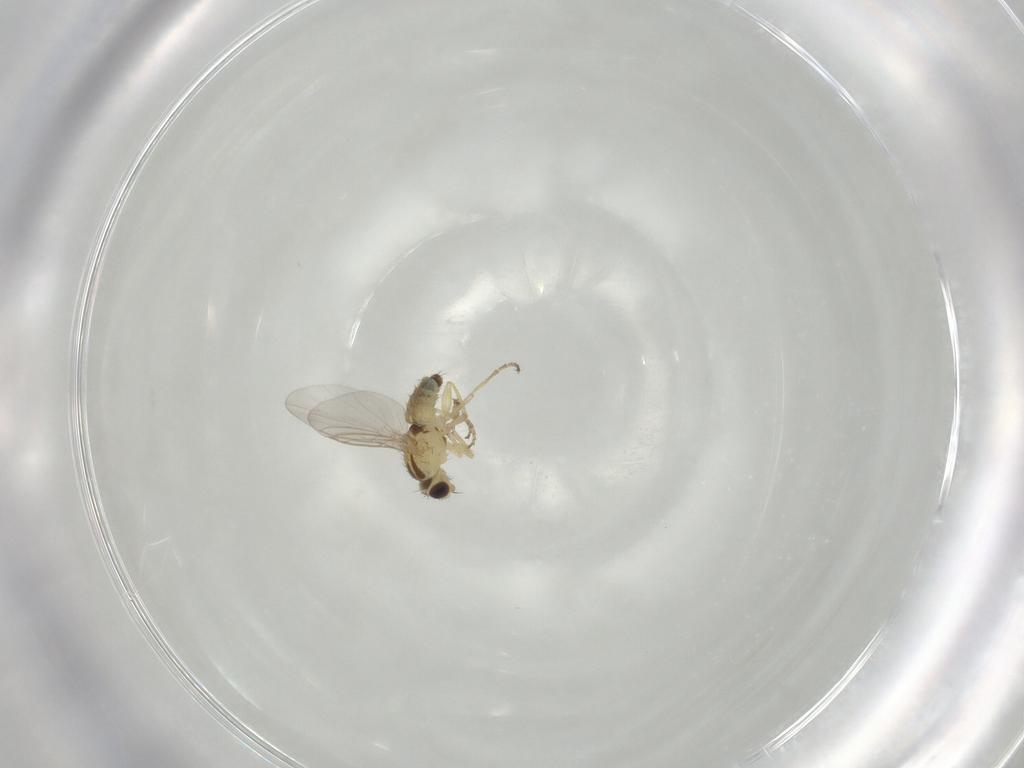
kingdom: Animalia
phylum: Arthropoda
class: Insecta
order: Diptera
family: Agromyzidae
